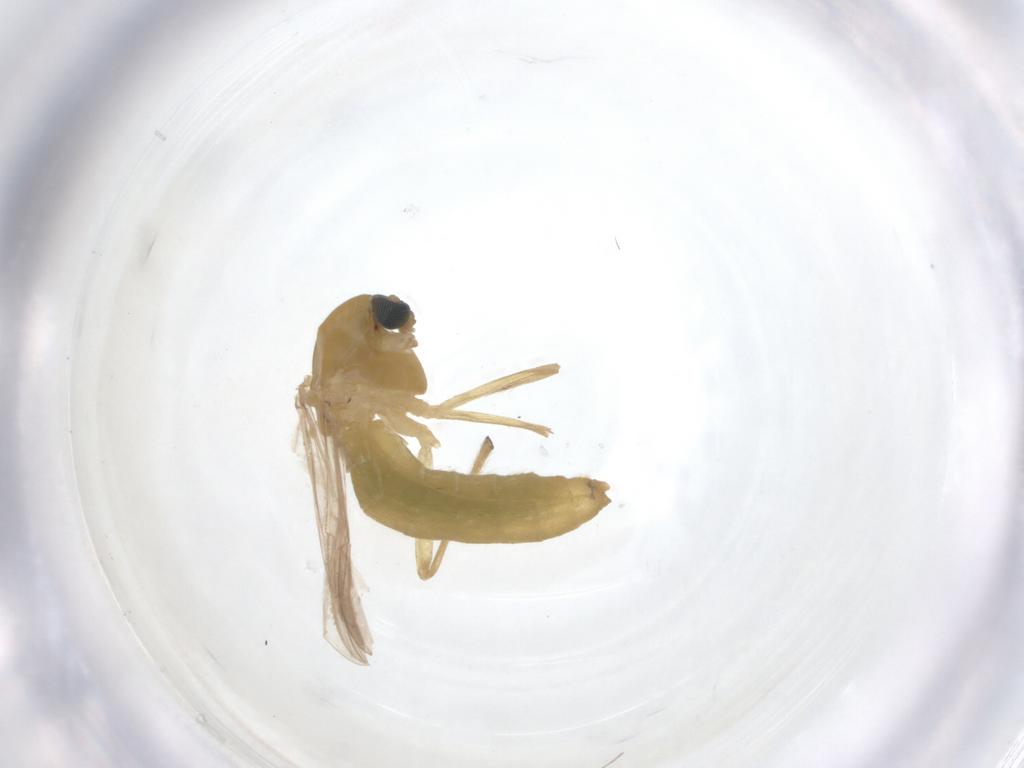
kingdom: Animalia
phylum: Arthropoda
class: Insecta
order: Diptera
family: Chironomidae
